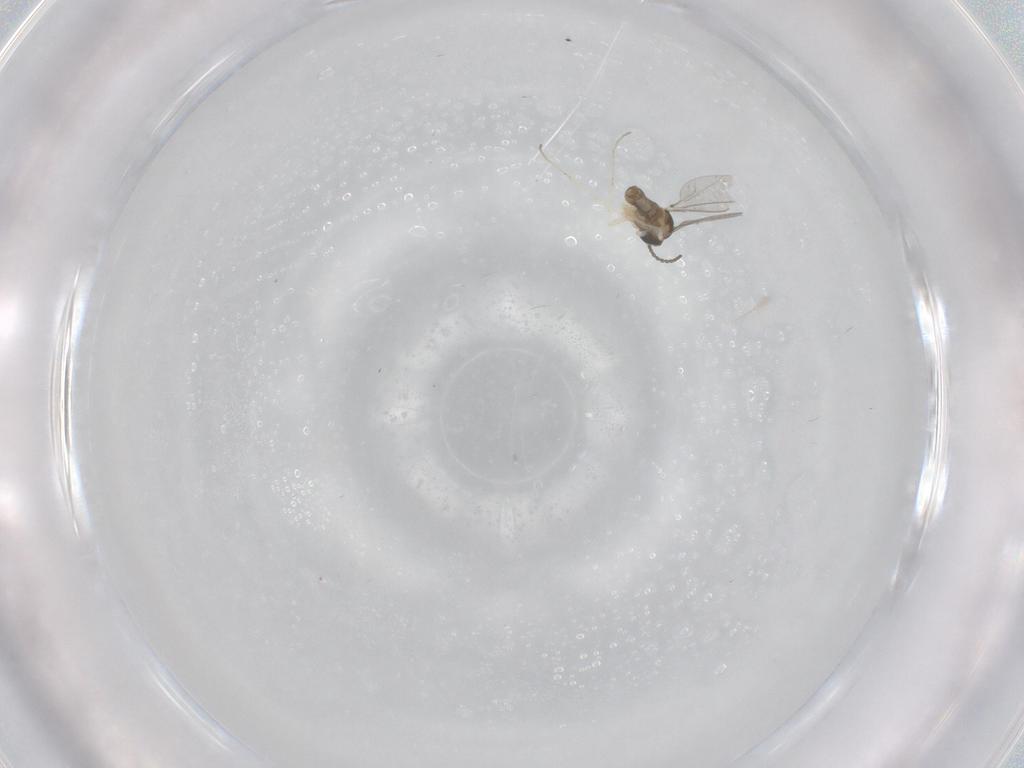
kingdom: Animalia
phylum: Arthropoda
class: Insecta
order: Diptera
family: Cecidomyiidae
